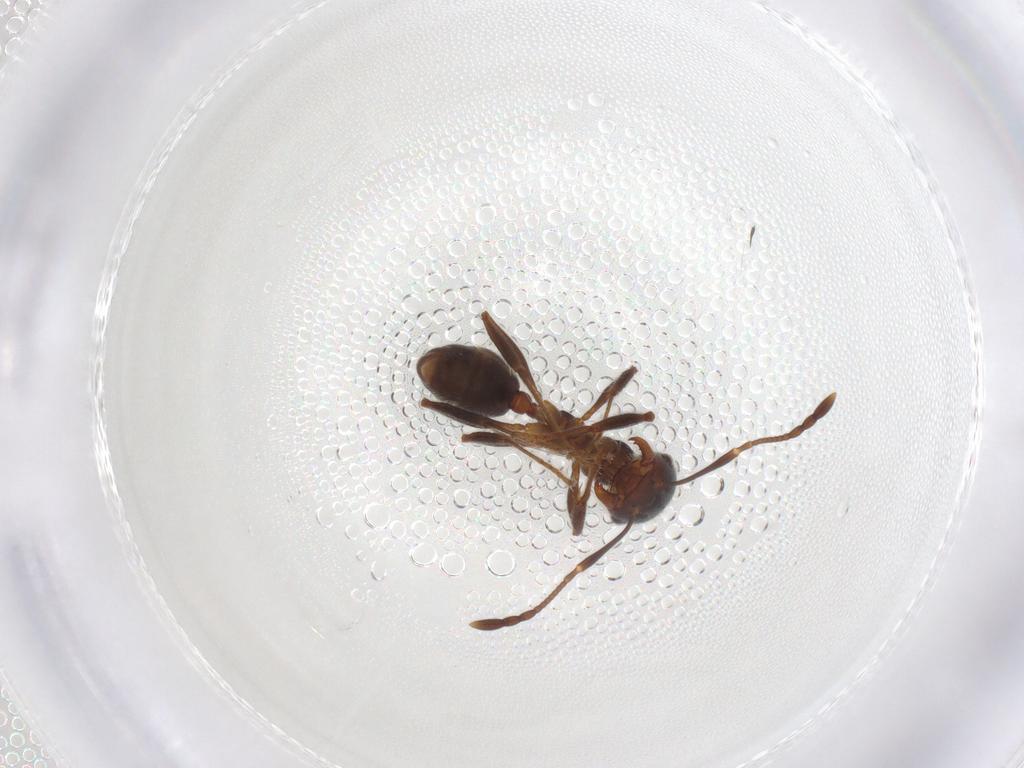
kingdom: Animalia
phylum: Arthropoda
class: Insecta
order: Hymenoptera
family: Formicidae
